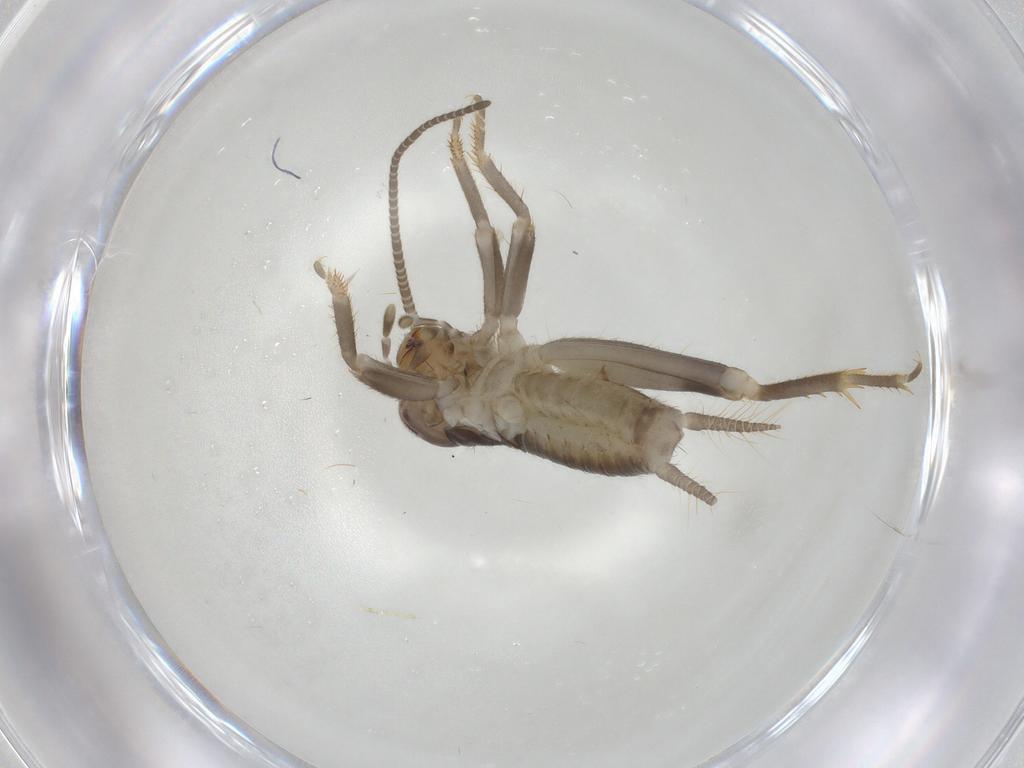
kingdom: Animalia
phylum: Arthropoda
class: Insecta
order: Orthoptera
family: Gryllidae
